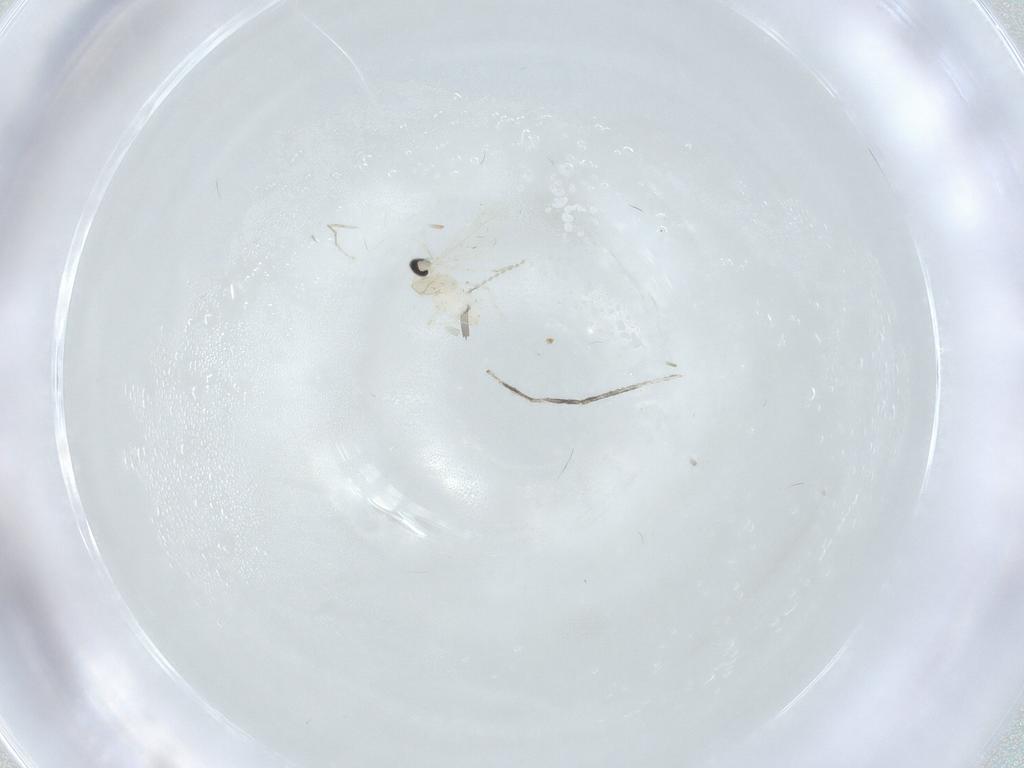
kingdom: Animalia
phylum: Arthropoda
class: Insecta
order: Diptera
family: Cecidomyiidae
